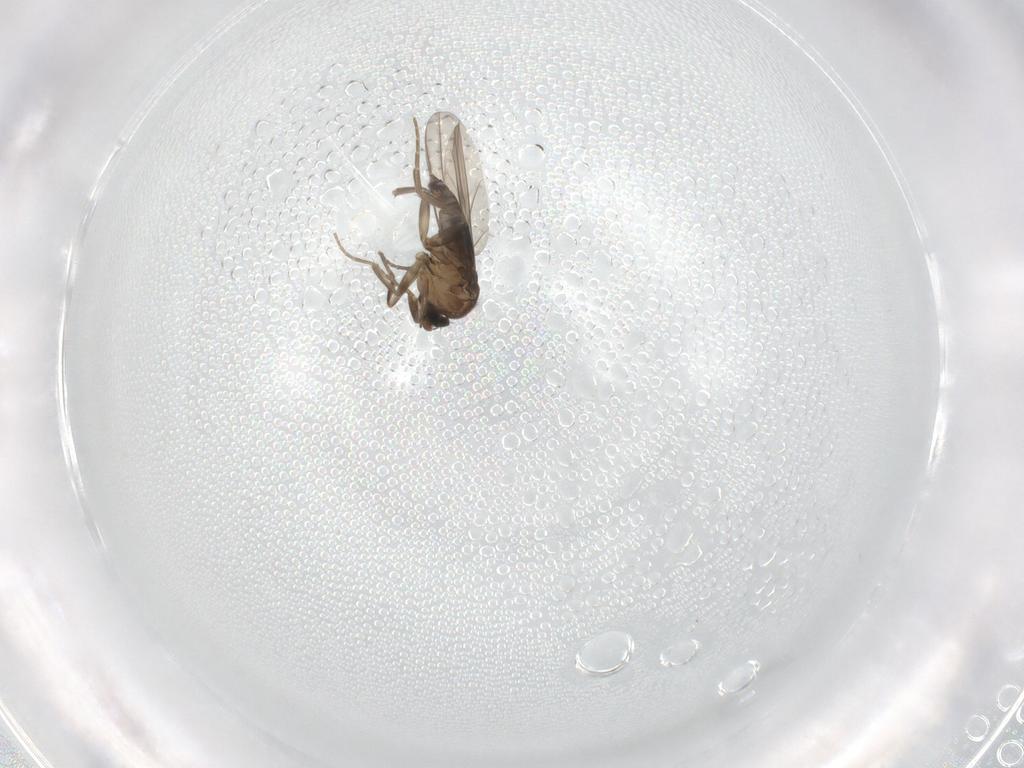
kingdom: Animalia
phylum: Arthropoda
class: Insecta
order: Diptera
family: Phoridae
